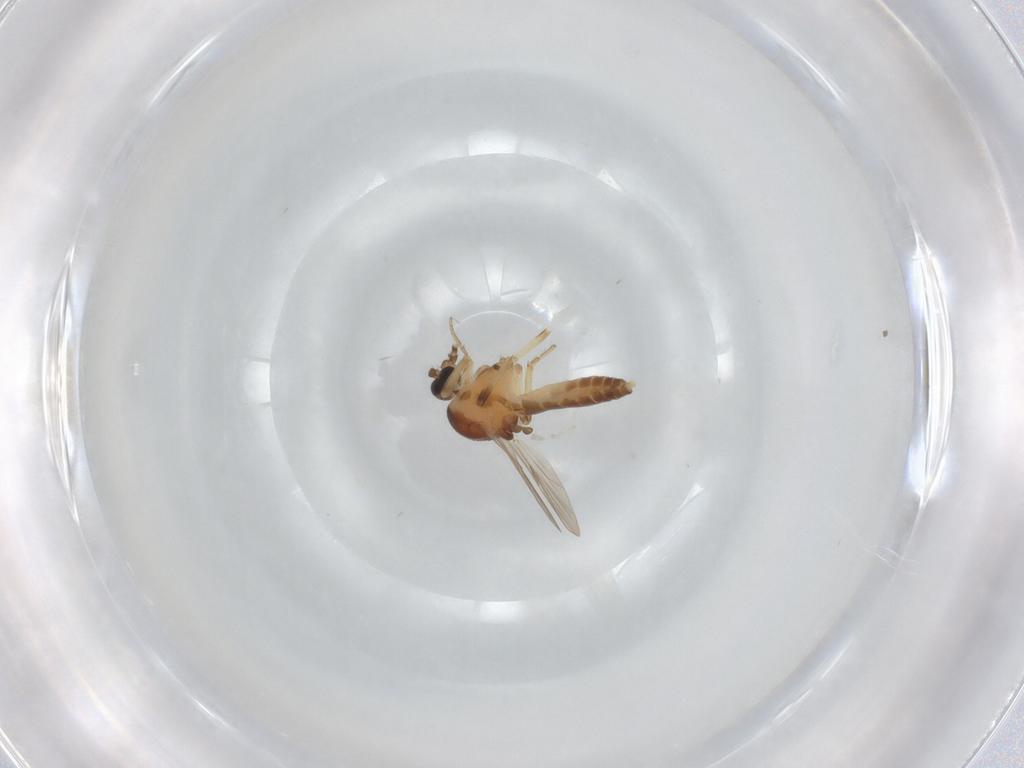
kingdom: Animalia
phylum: Arthropoda
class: Insecta
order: Diptera
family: Ceratopogonidae
